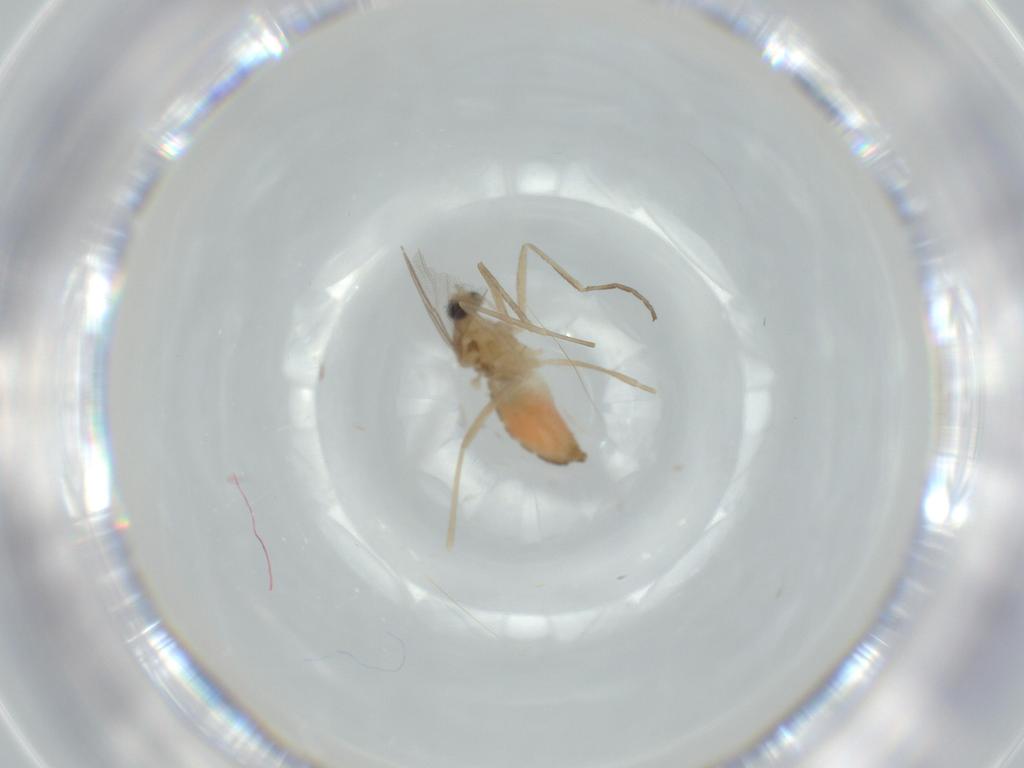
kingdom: Animalia
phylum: Arthropoda
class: Insecta
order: Diptera
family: Cecidomyiidae
